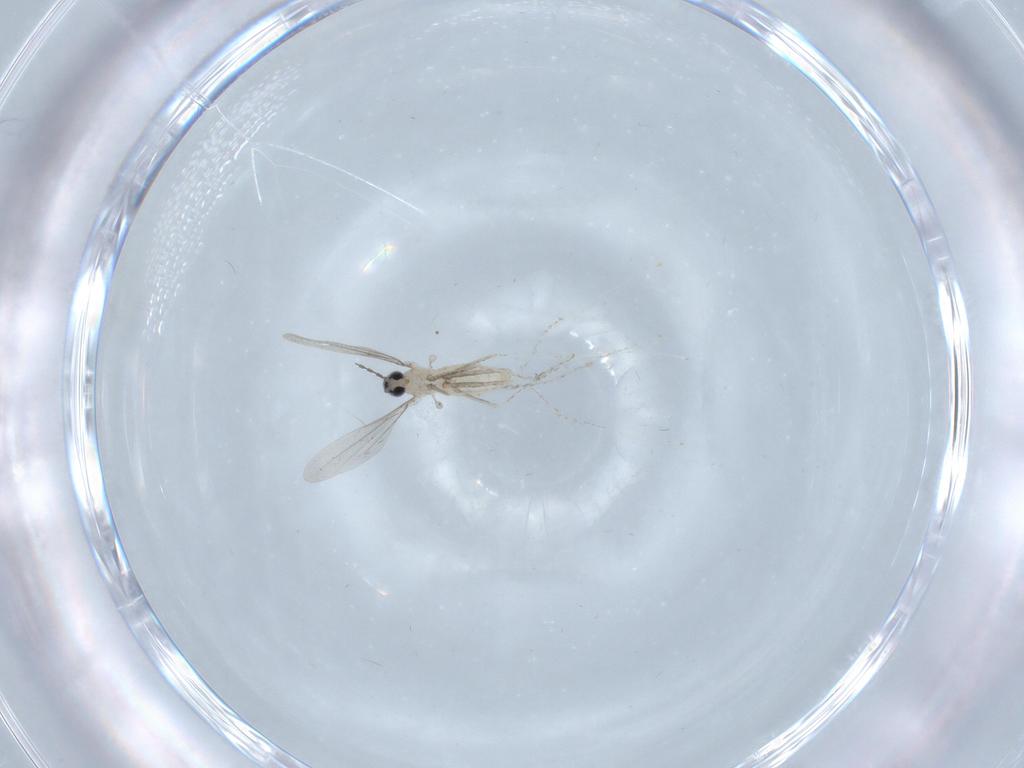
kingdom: Animalia
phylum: Arthropoda
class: Insecta
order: Diptera
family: Cecidomyiidae
